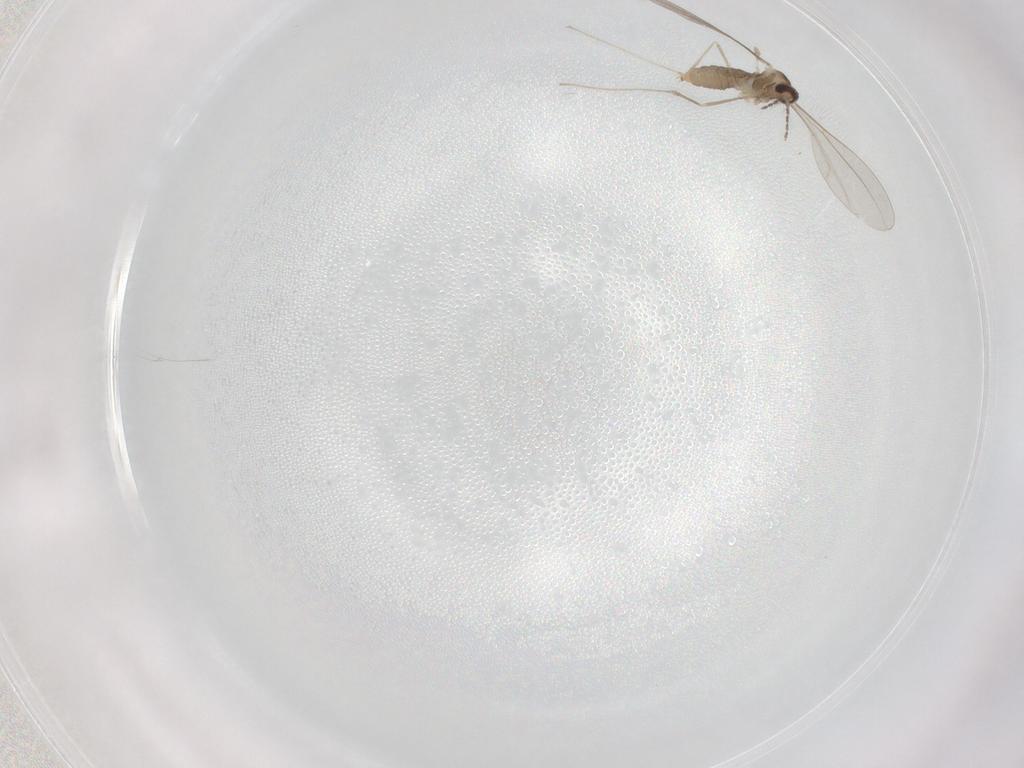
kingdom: Animalia
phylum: Arthropoda
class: Insecta
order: Diptera
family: Cecidomyiidae
